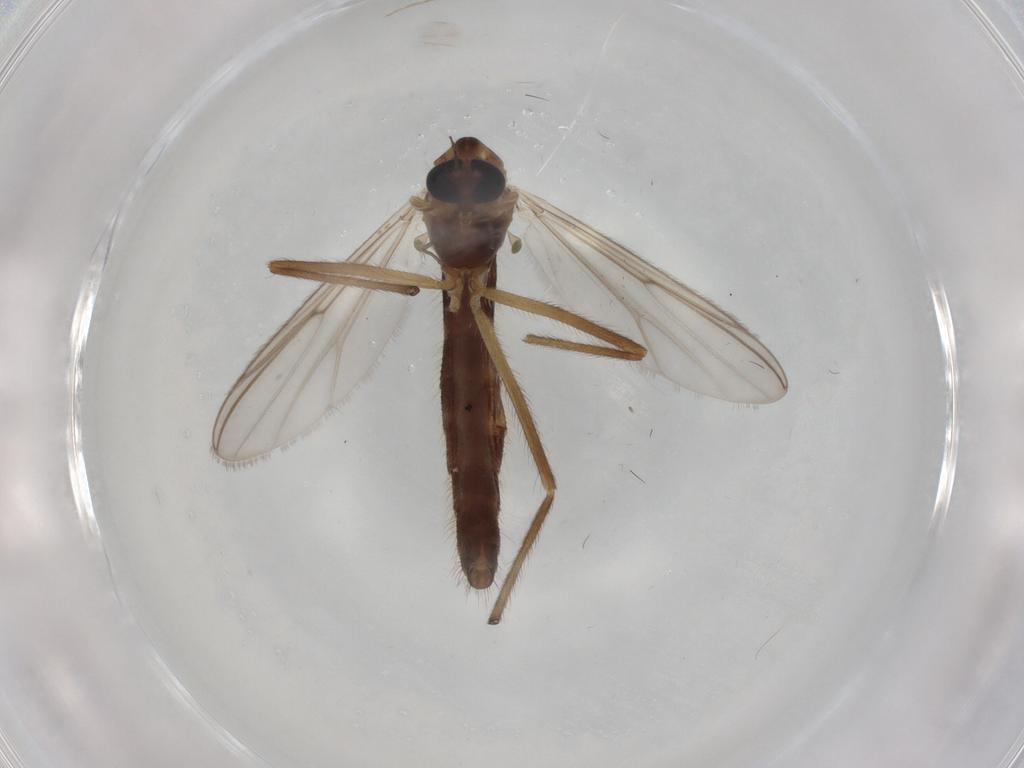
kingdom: Animalia
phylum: Arthropoda
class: Insecta
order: Diptera
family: Chironomidae
